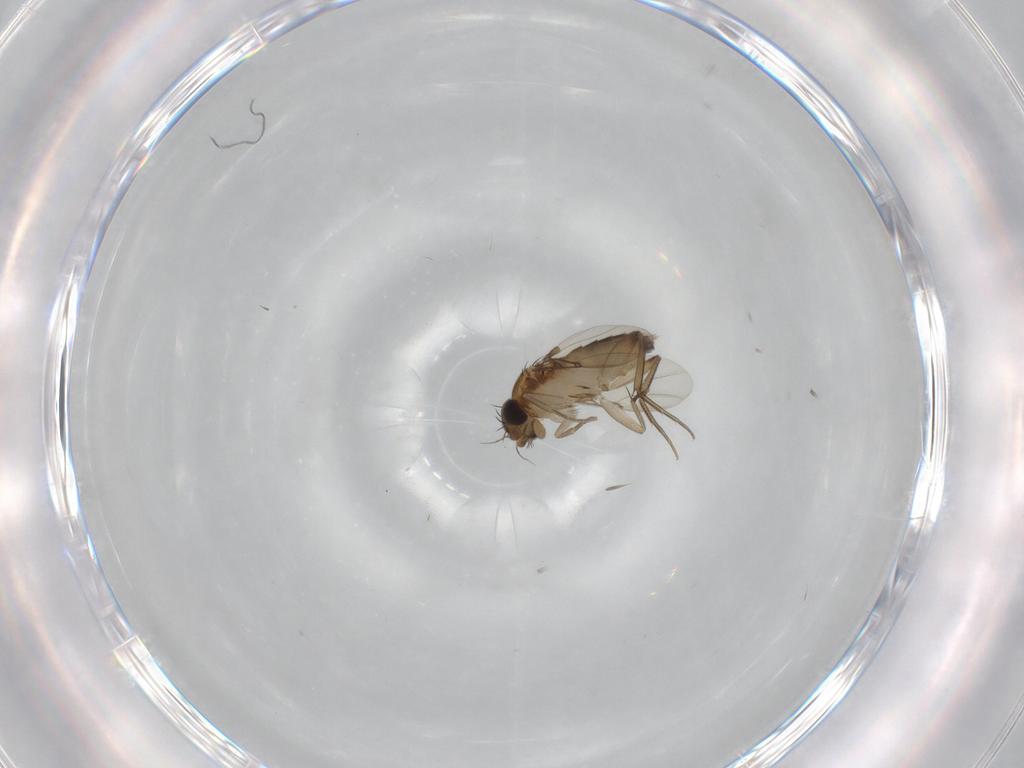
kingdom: Animalia
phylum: Arthropoda
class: Insecta
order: Diptera
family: Phoridae
